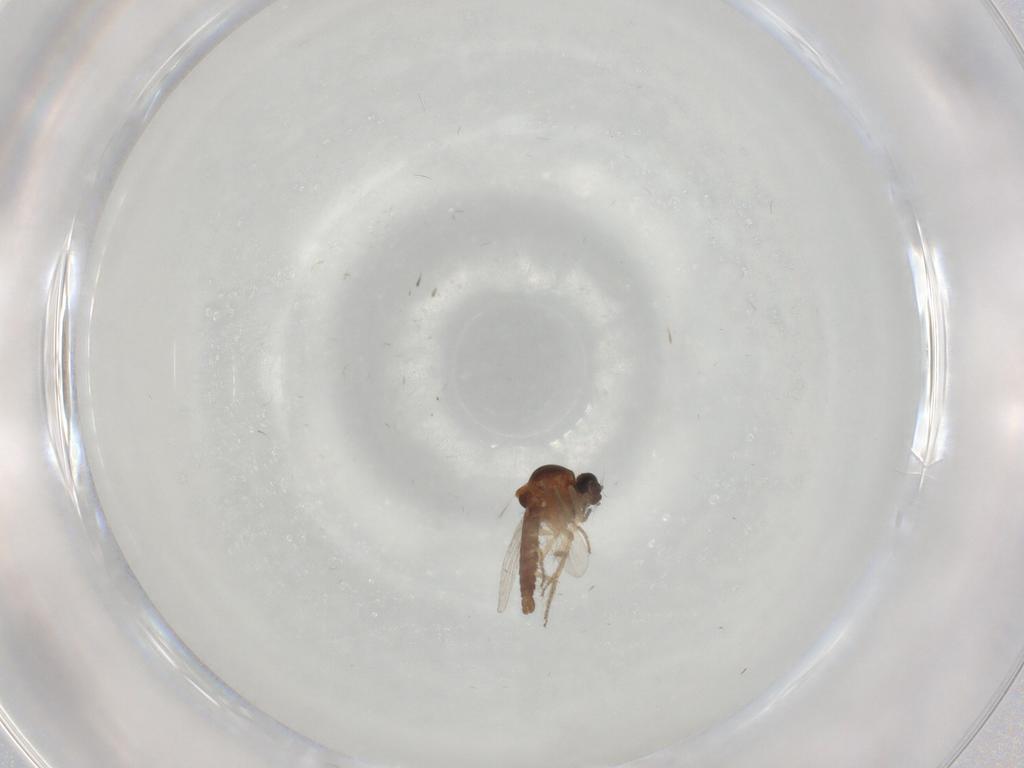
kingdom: Animalia
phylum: Arthropoda
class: Insecta
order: Diptera
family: Ceratopogonidae
